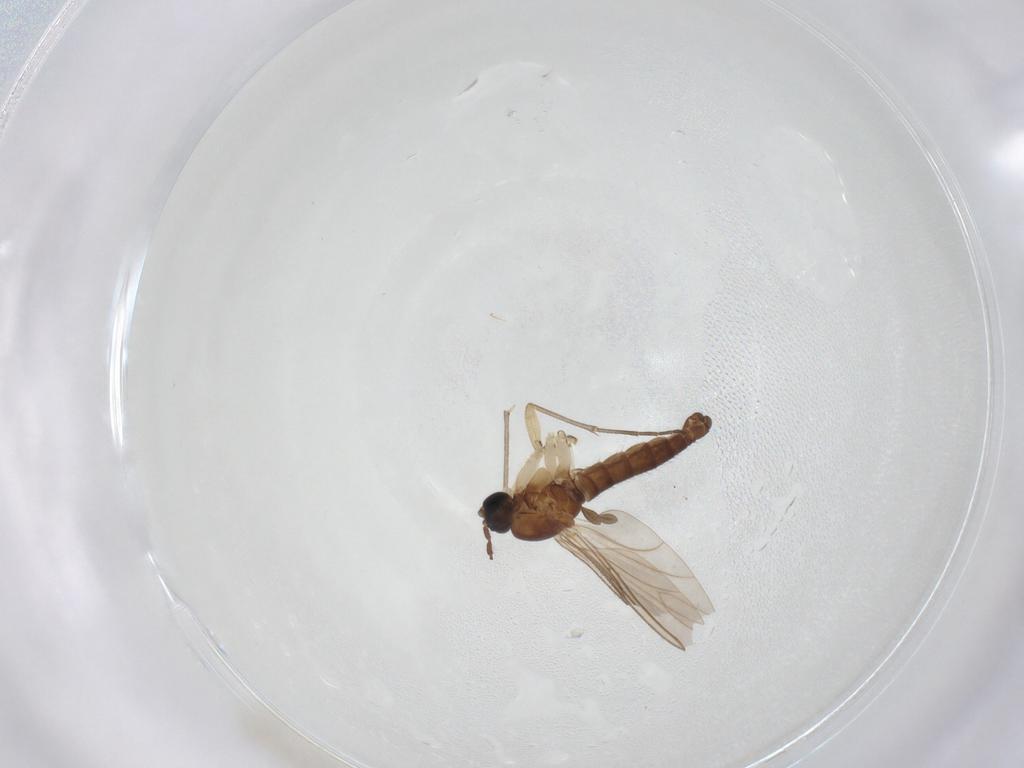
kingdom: Animalia
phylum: Arthropoda
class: Insecta
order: Diptera
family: Sciaridae
